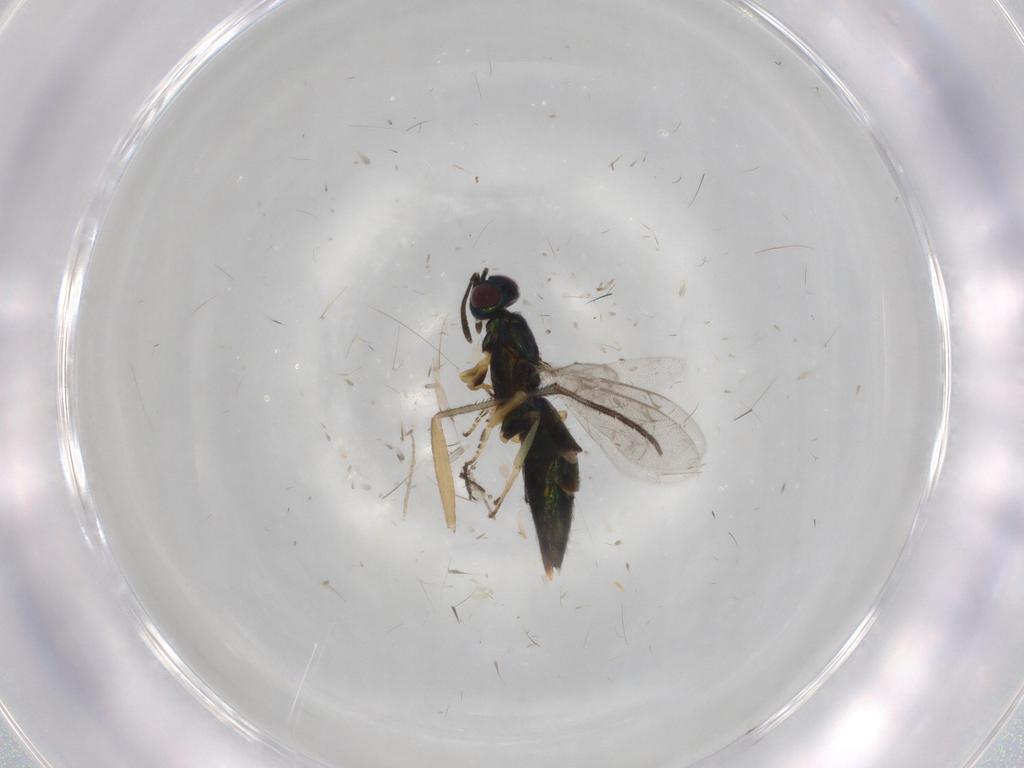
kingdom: Animalia
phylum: Arthropoda
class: Insecta
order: Hymenoptera
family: Eupelmidae
